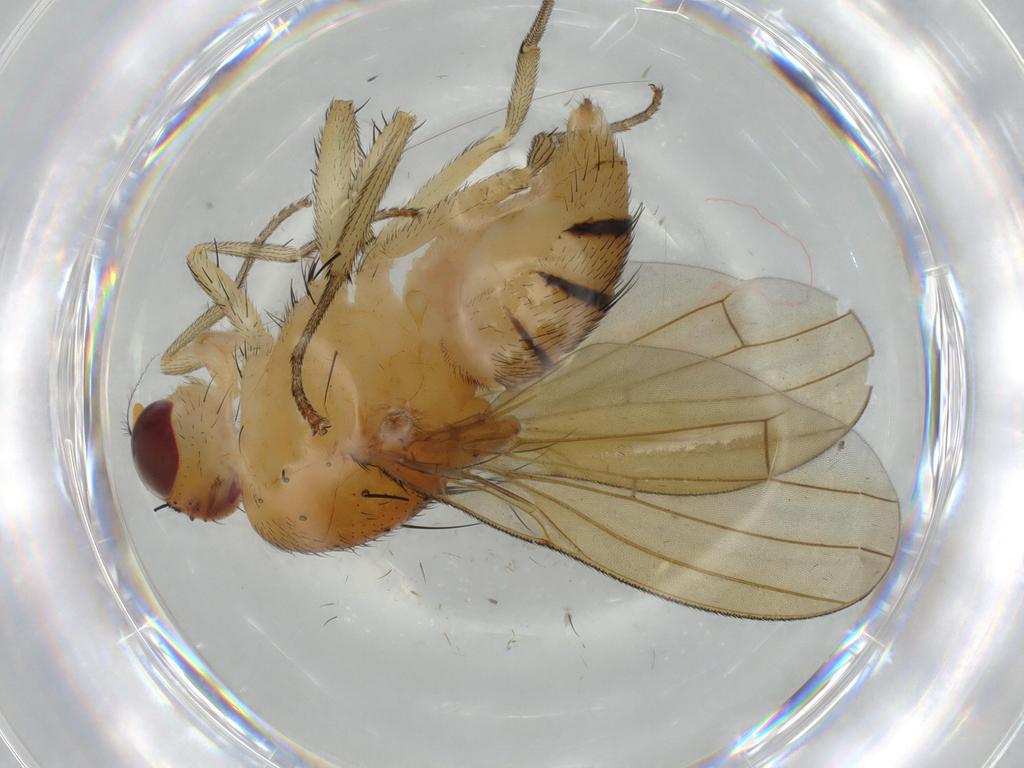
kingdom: Animalia
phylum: Arthropoda
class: Insecta
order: Diptera
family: Lauxaniidae
